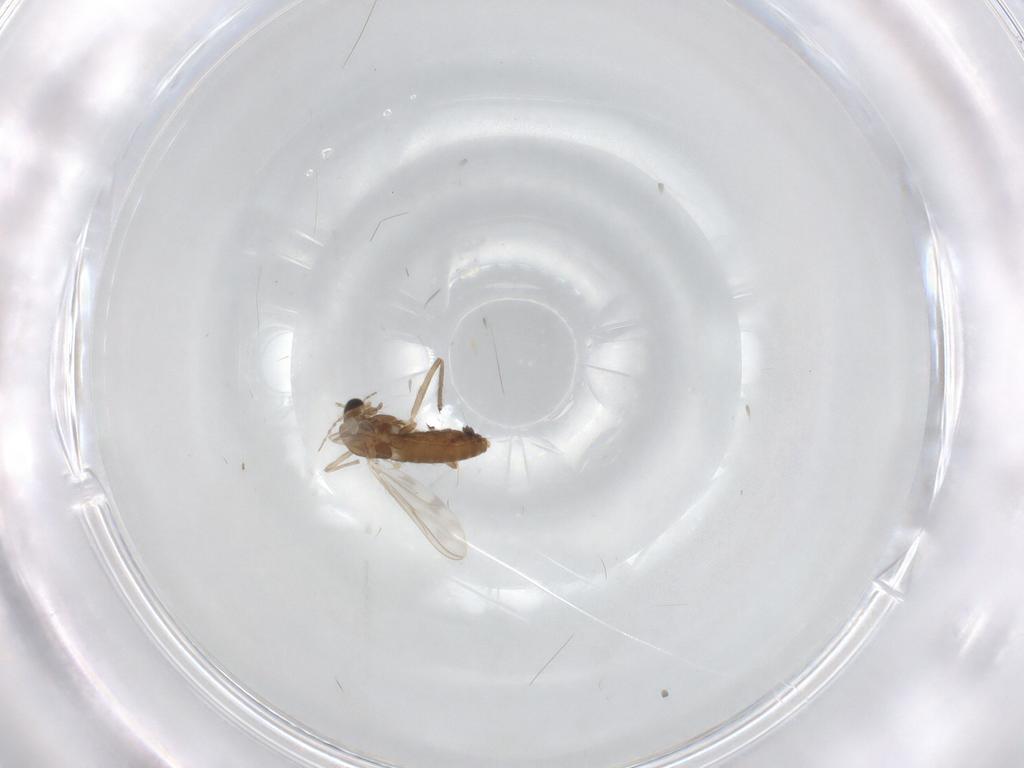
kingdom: Animalia
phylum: Arthropoda
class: Insecta
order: Diptera
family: Chironomidae
